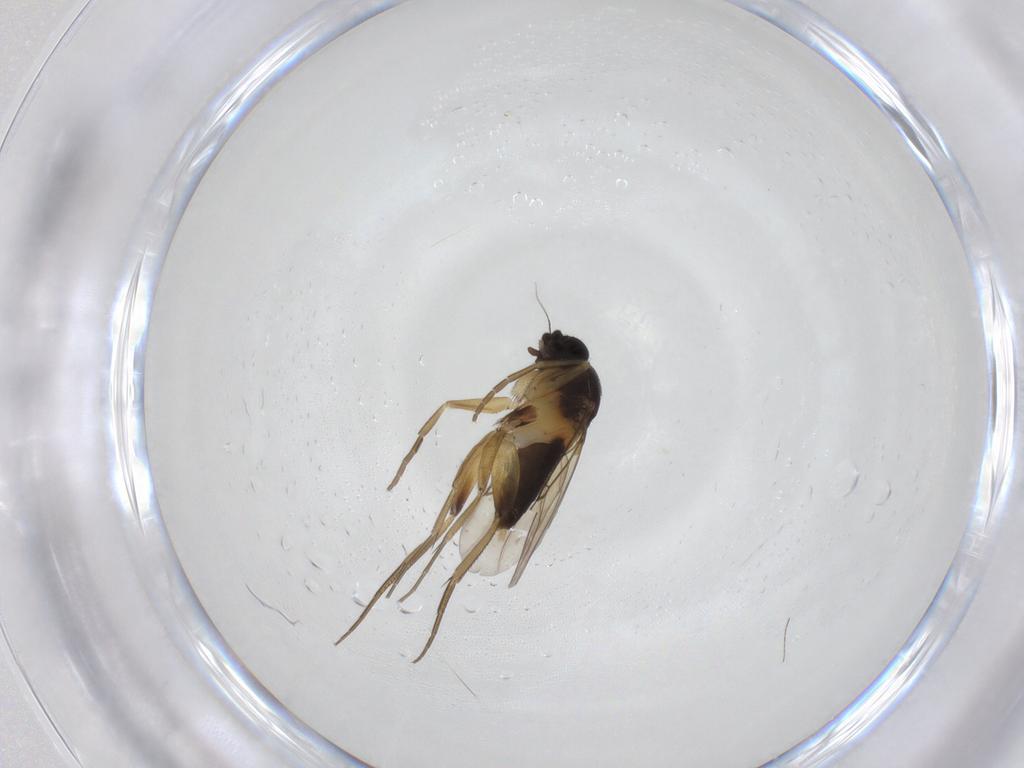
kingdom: Animalia
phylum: Arthropoda
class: Insecta
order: Diptera
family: Phoridae
